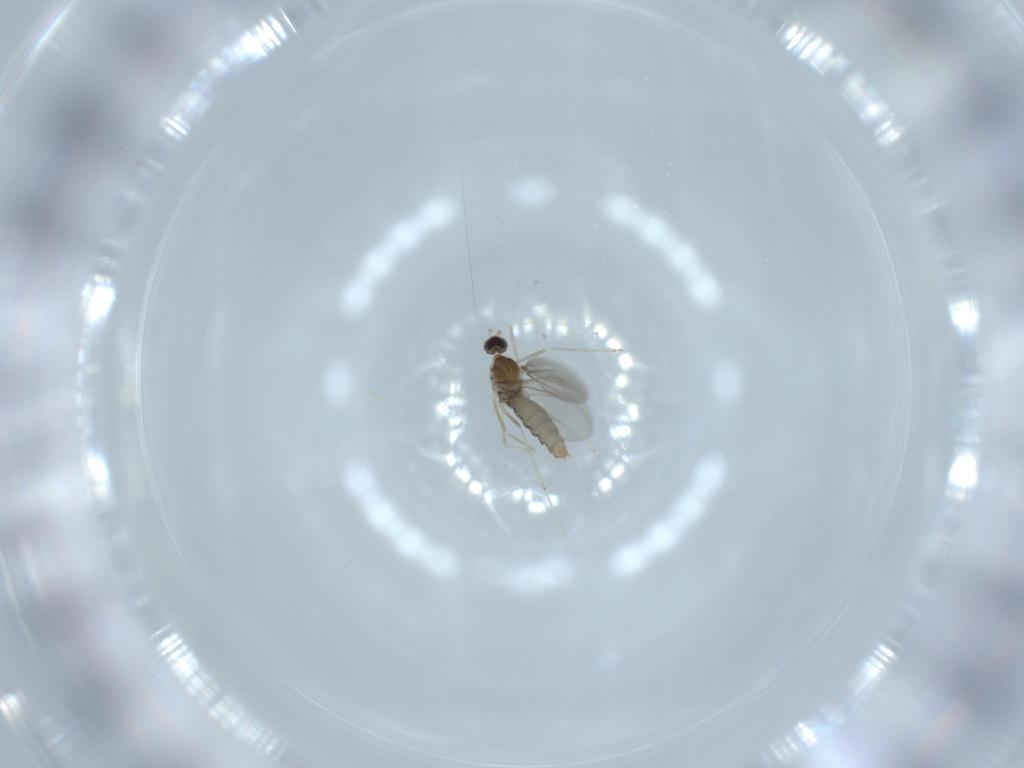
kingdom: Animalia
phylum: Arthropoda
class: Insecta
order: Diptera
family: Cecidomyiidae
